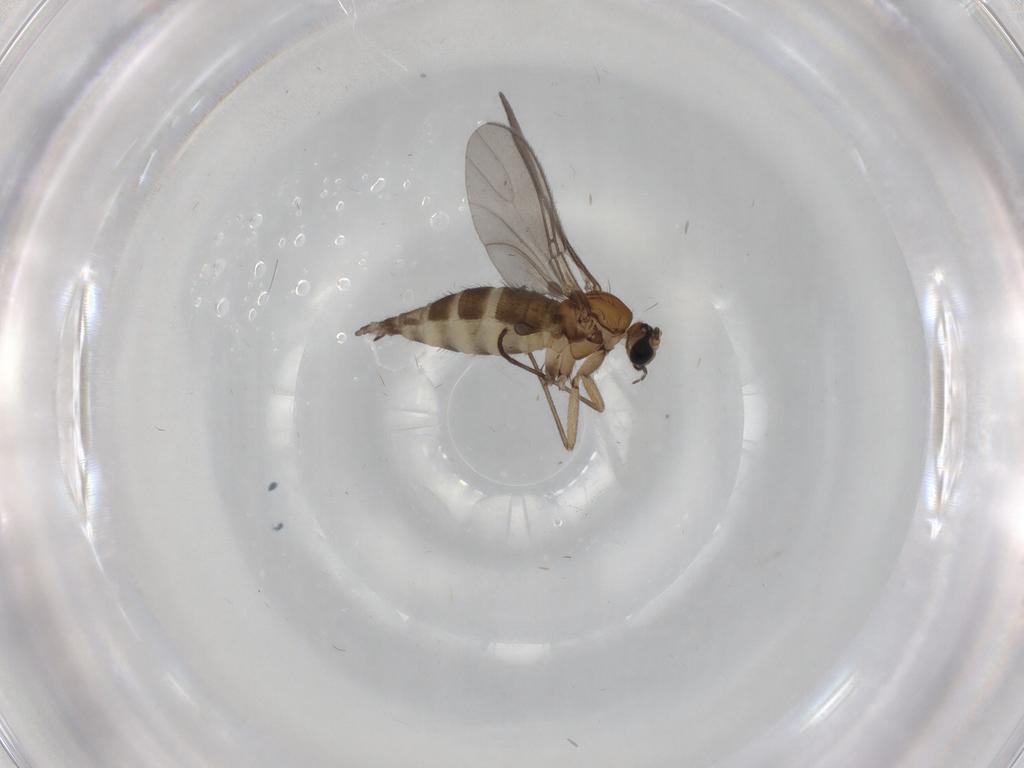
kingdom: Animalia
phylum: Arthropoda
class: Insecta
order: Diptera
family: Sciaridae
